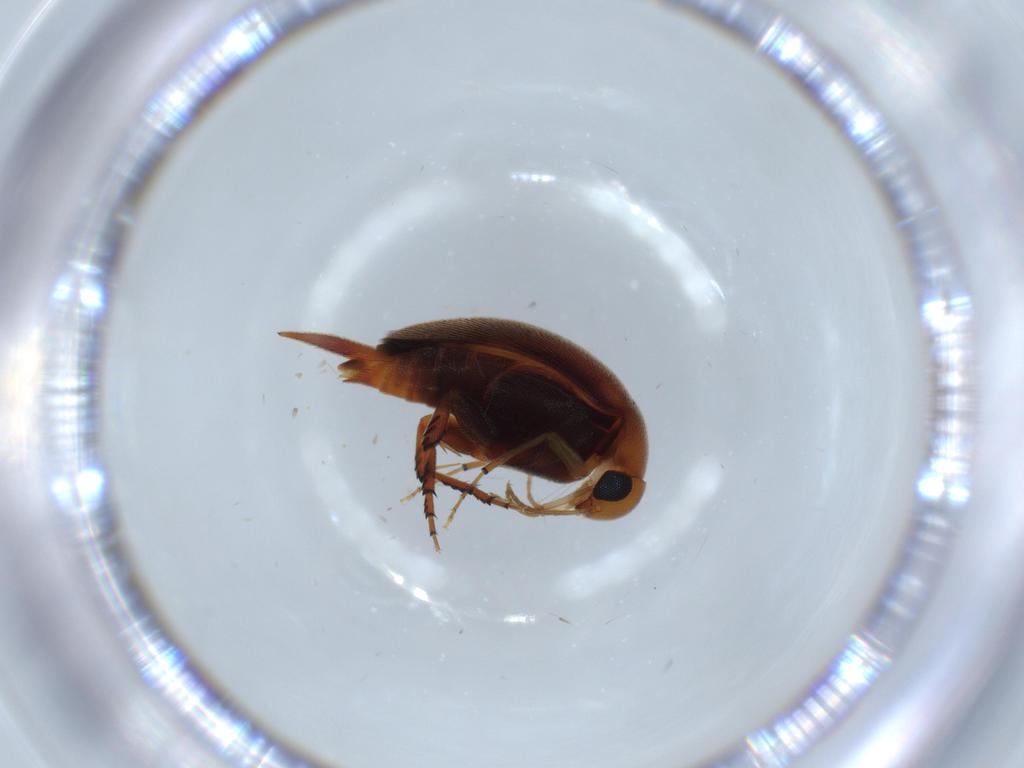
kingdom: Animalia
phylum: Arthropoda
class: Insecta
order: Coleoptera
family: Mordellidae
